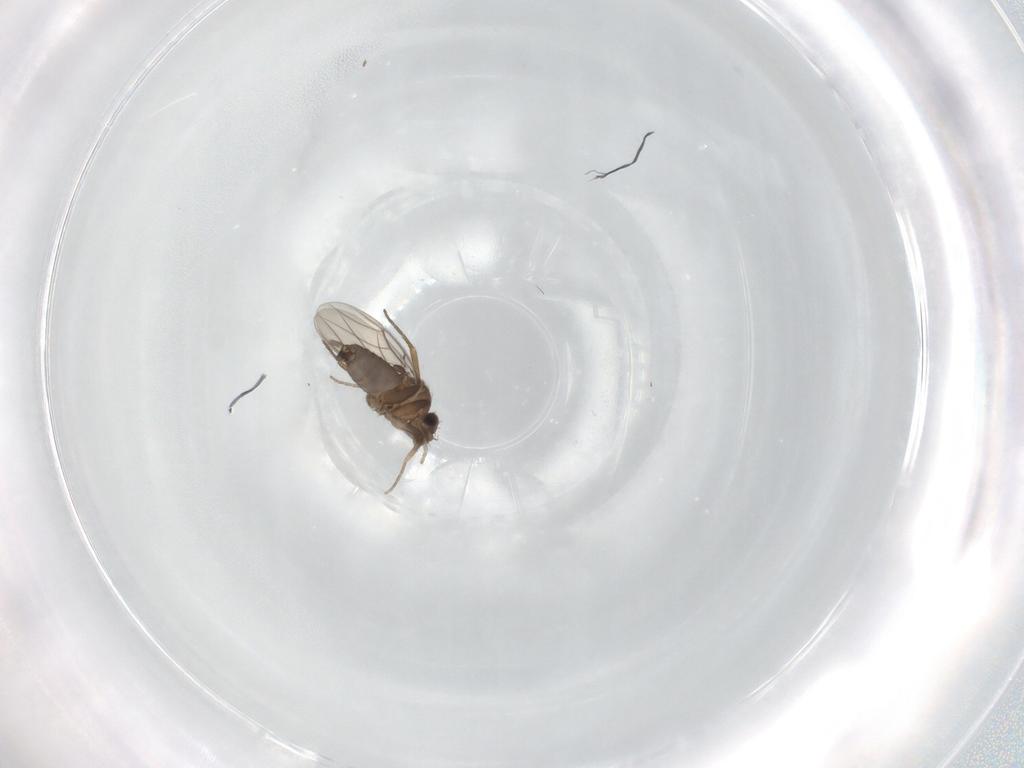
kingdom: Animalia
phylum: Arthropoda
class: Insecta
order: Diptera
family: Phoridae
